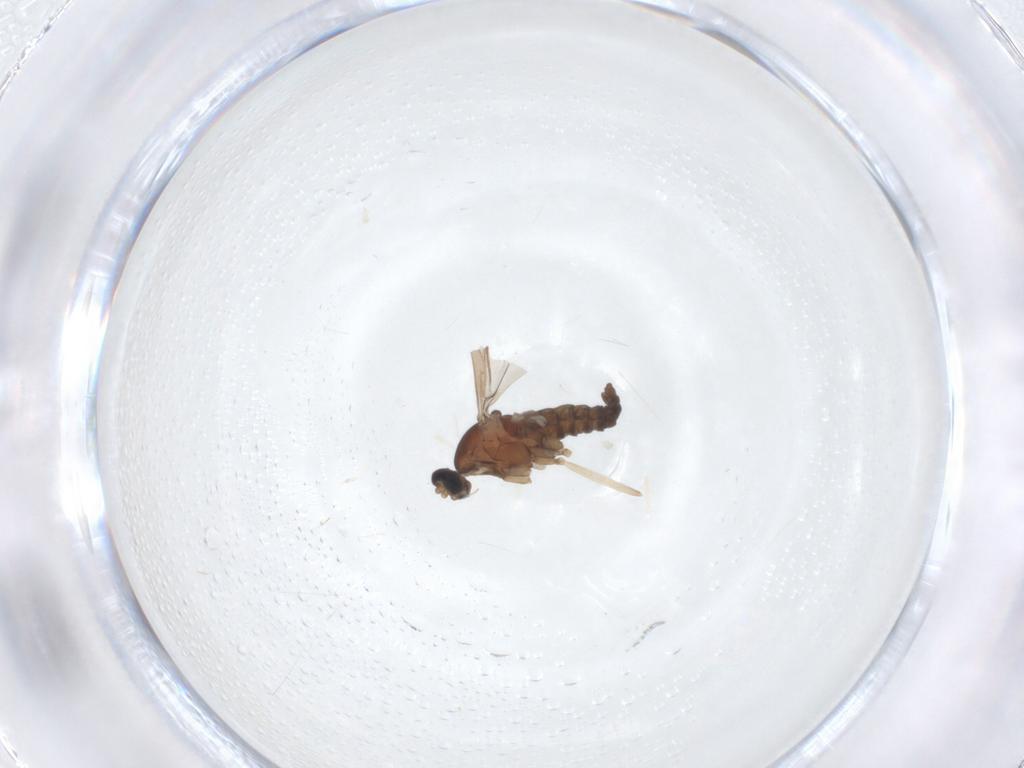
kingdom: Animalia
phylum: Arthropoda
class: Insecta
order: Diptera
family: Cecidomyiidae
